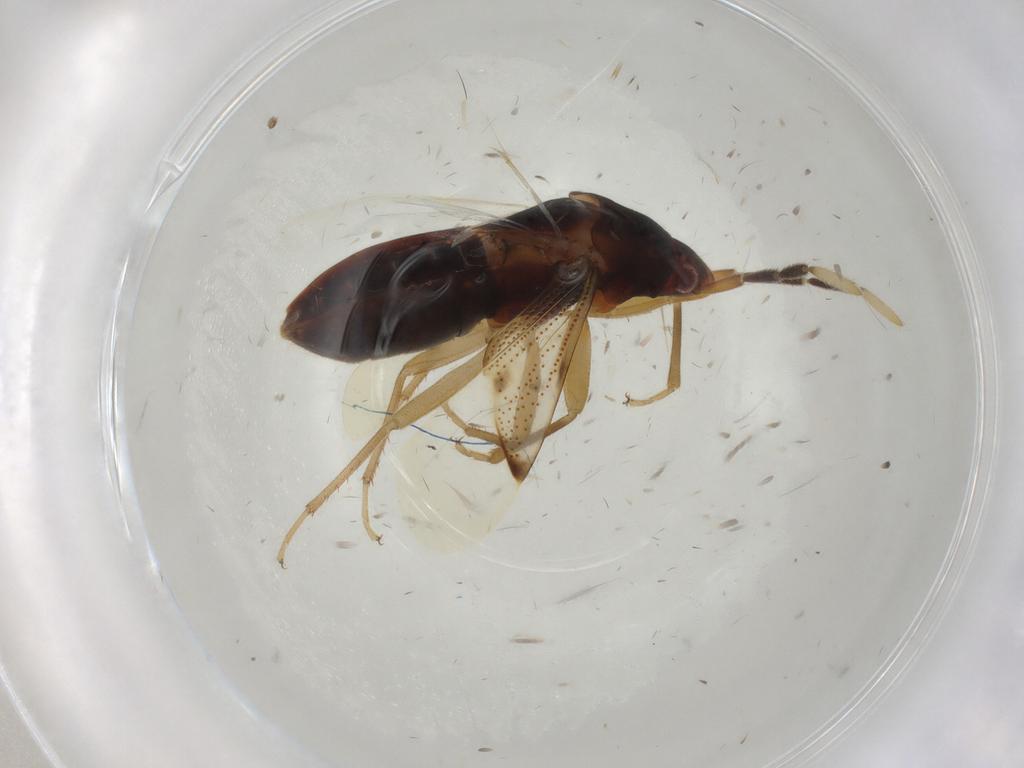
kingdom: Animalia
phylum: Arthropoda
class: Insecta
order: Hemiptera
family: Rhyparochromidae
